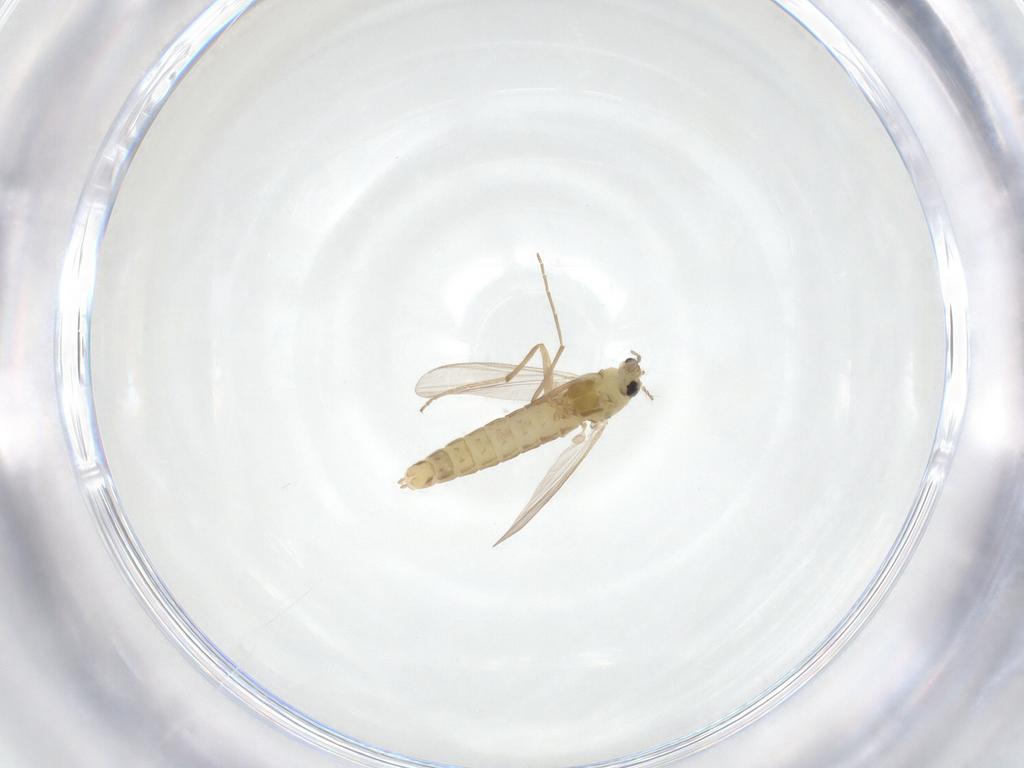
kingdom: Animalia
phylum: Arthropoda
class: Insecta
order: Diptera
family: Chironomidae
